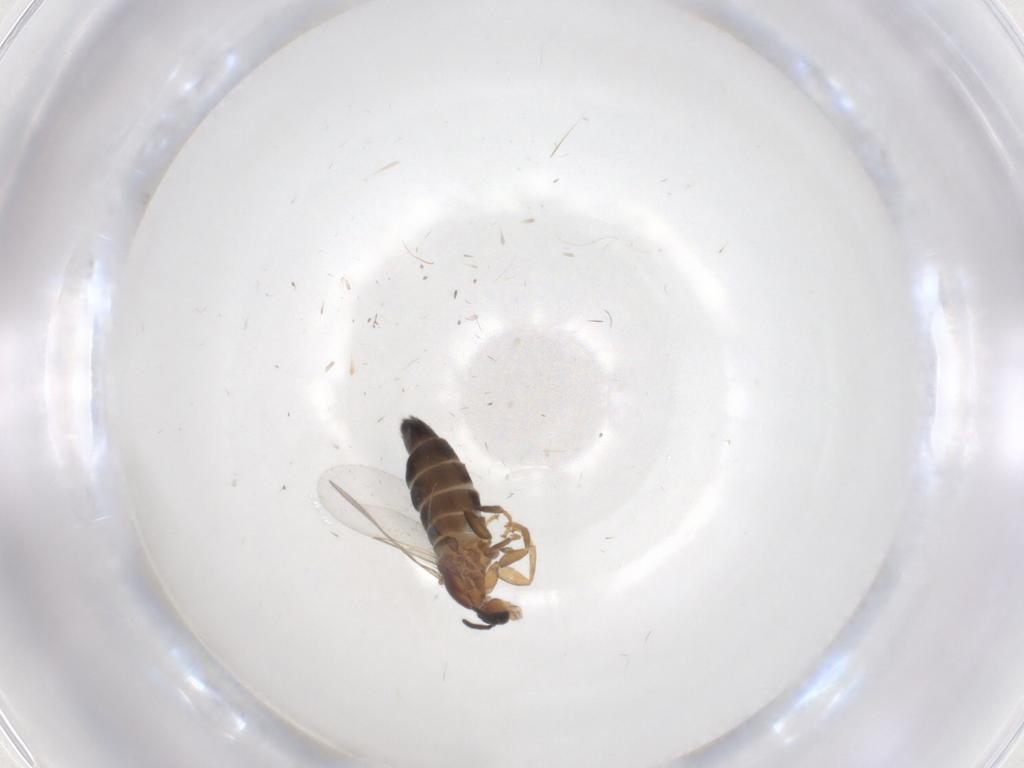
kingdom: Animalia
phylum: Arthropoda
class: Insecta
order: Diptera
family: Scatopsidae
